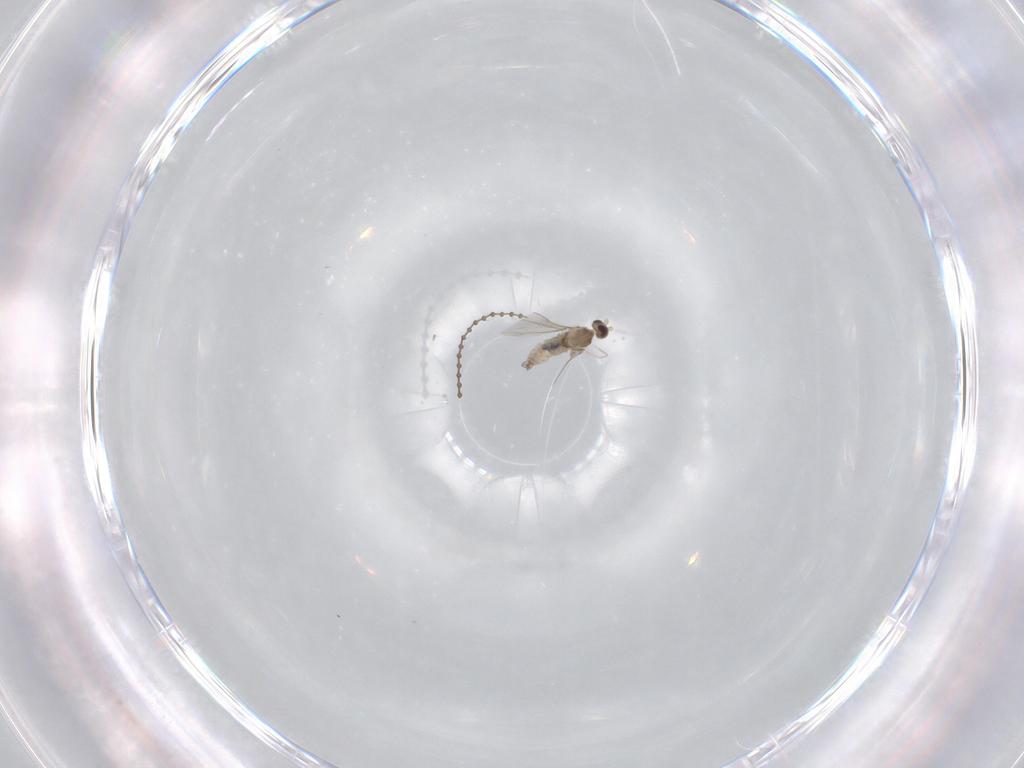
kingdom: Animalia
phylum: Arthropoda
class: Insecta
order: Diptera
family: Cecidomyiidae
